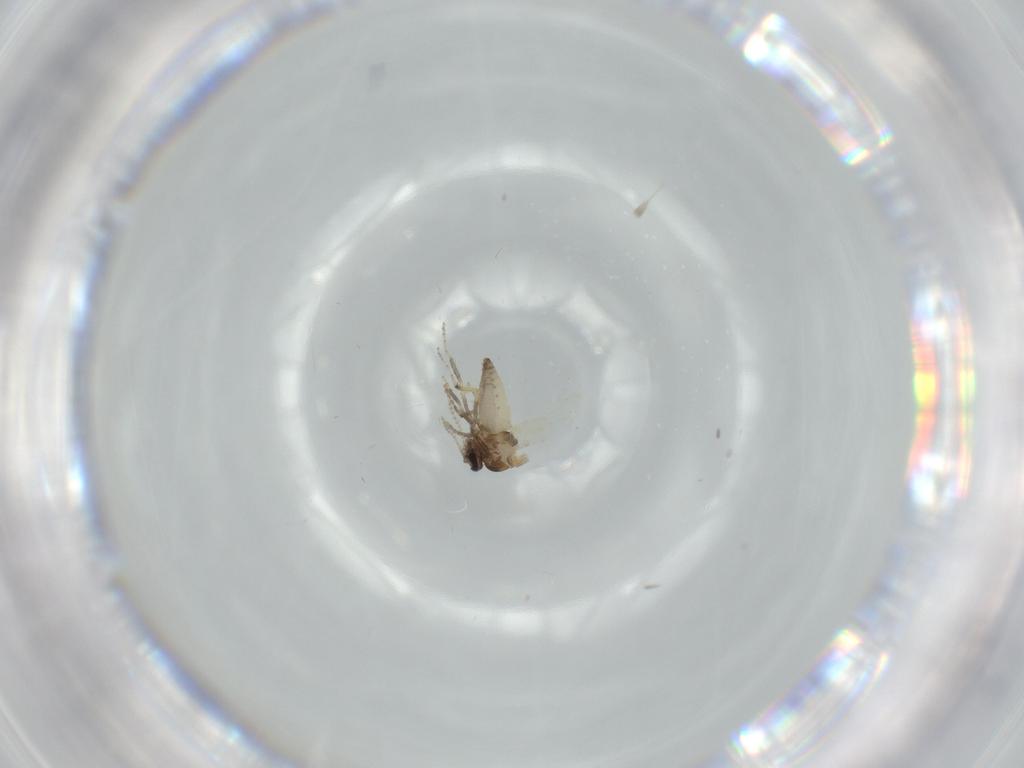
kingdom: Animalia
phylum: Arthropoda
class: Insecta
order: Diptera
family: Ceratopogonidae
